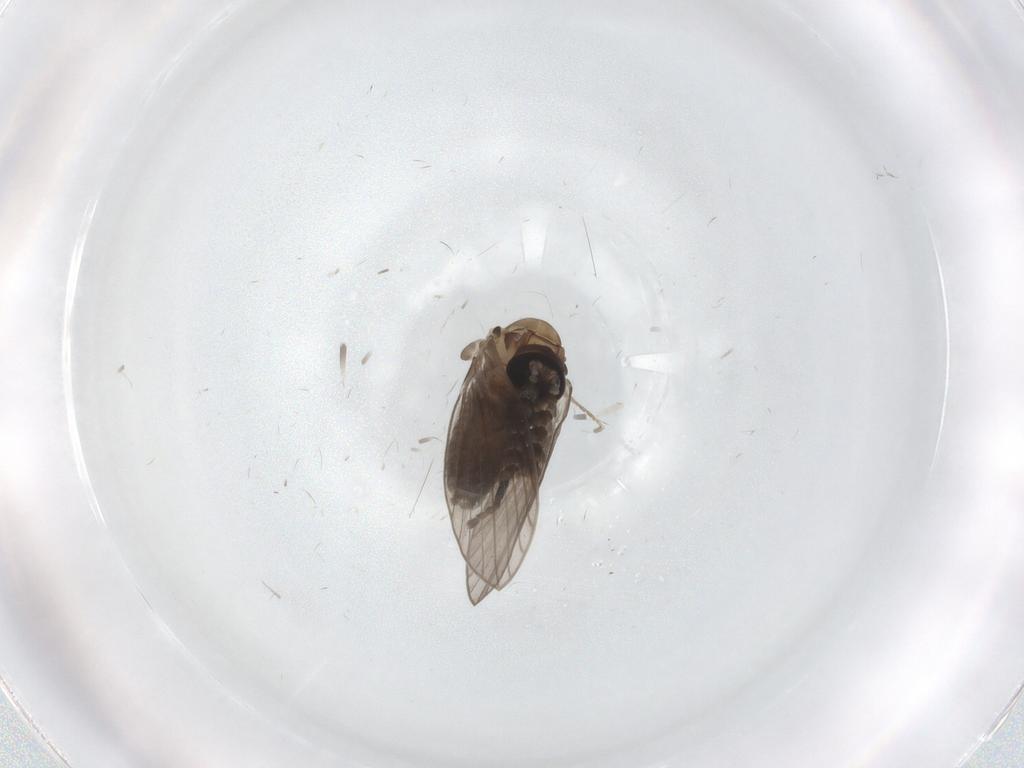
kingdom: Animalia
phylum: Arthropoda
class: Insecta
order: Diptera
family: Psychodidae
